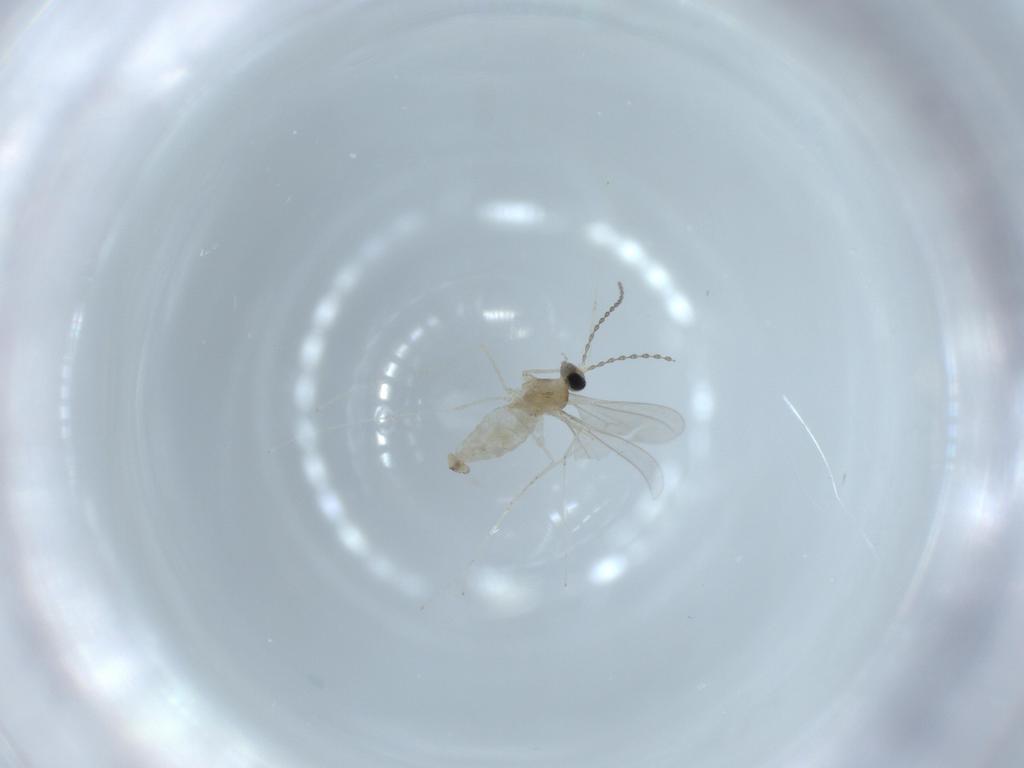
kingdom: Animalia
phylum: Arthropoda
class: Insecta
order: Diptera
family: Cecidomyiidae
